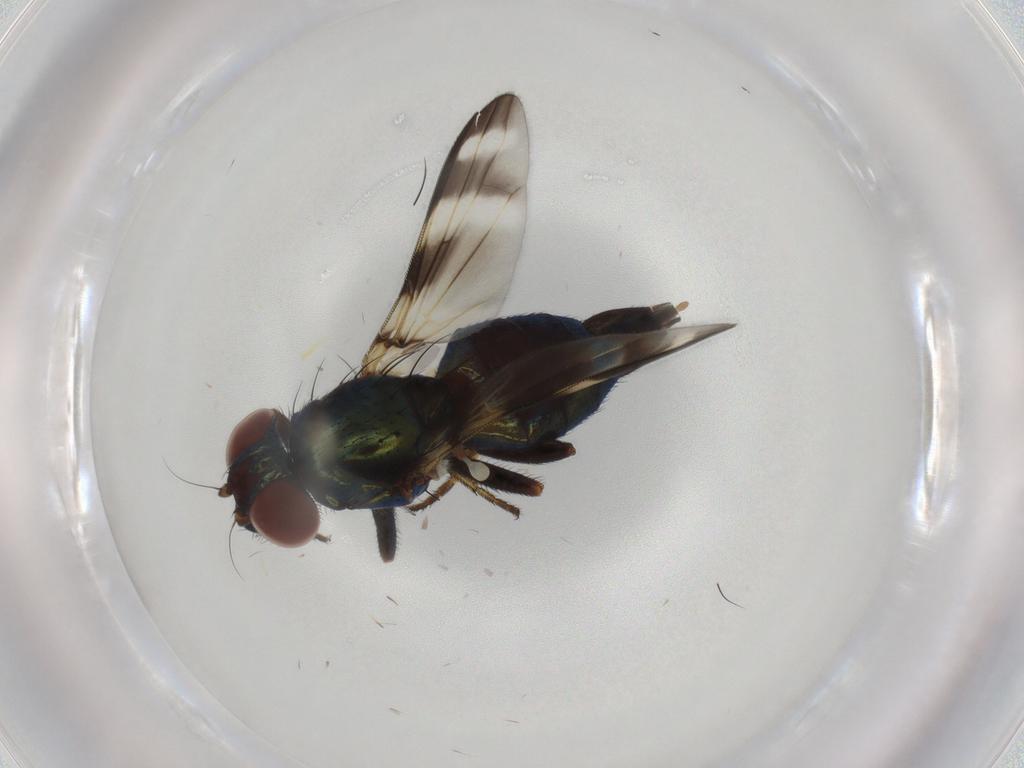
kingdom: Animalia
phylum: Arthropoda
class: Insecta
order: Diptera
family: Ulidiidae
